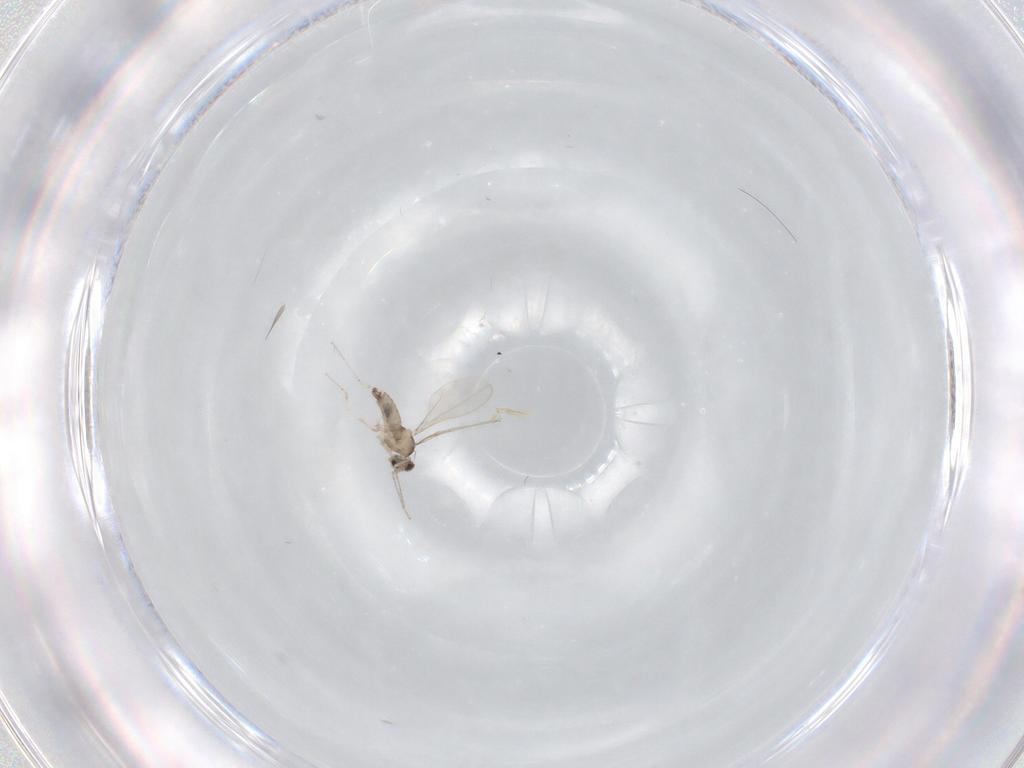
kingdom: Animalia
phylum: Arthropoda
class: Insecta
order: Diptera
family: Cecidomyiidae
